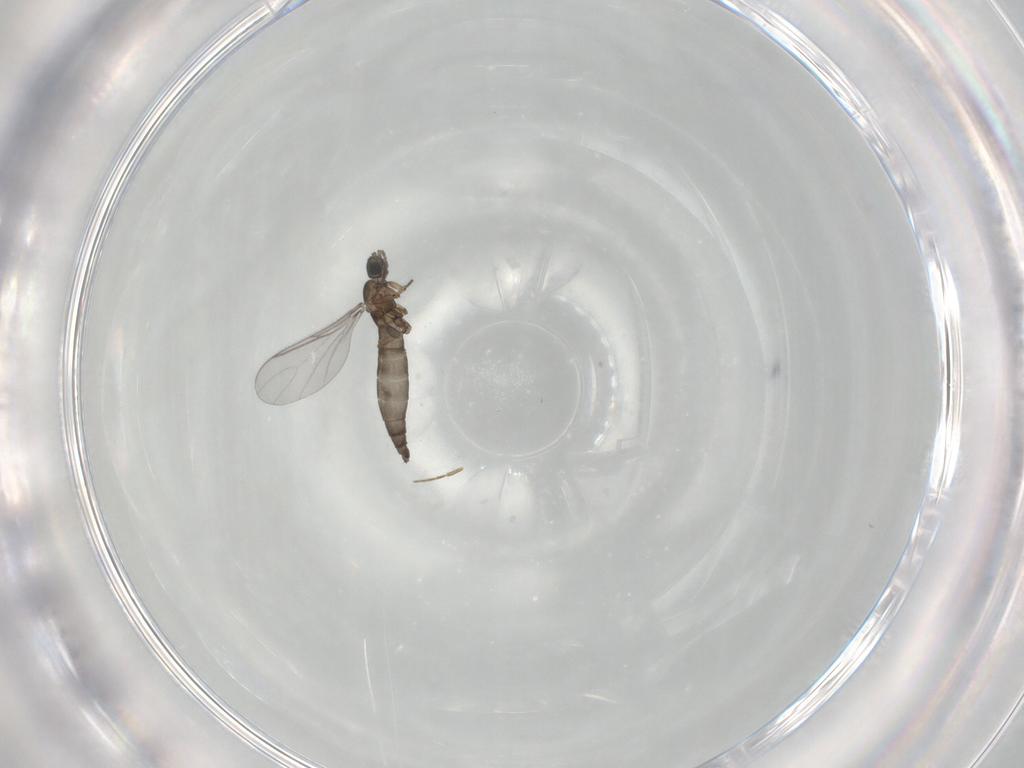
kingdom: Animalia
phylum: Arthropoda
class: Insecta
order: Diptera
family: Sciaridae
